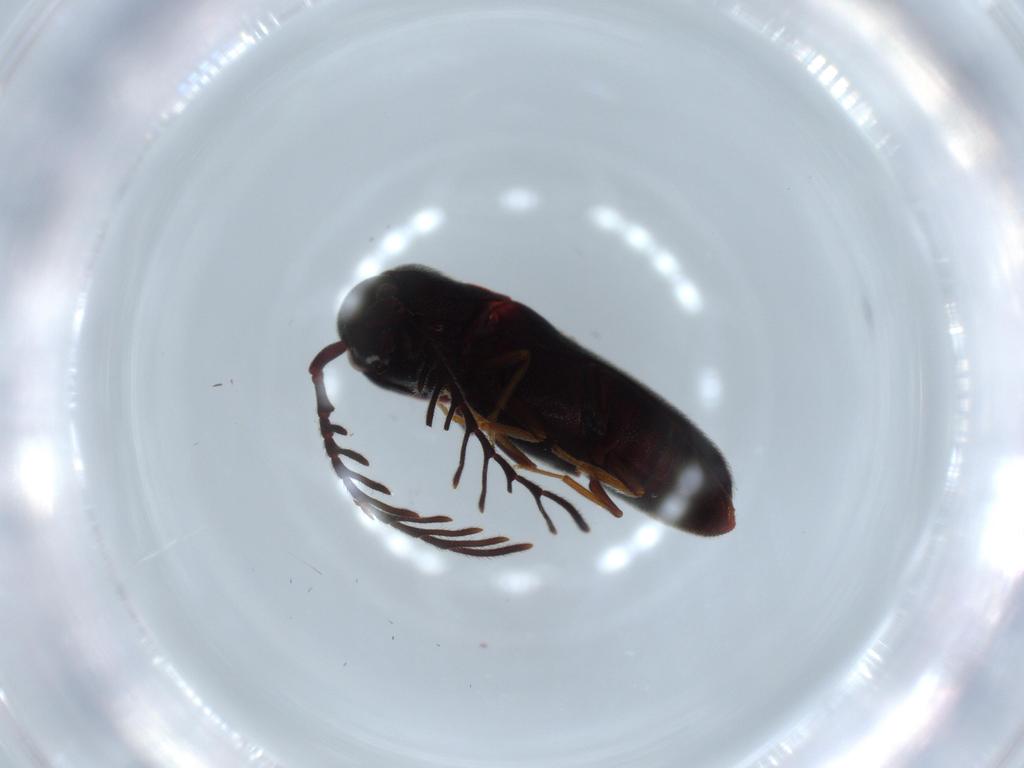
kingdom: Animalia
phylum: Arthropoda
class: Insecta
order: Coleoptera
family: Eucnemidae
